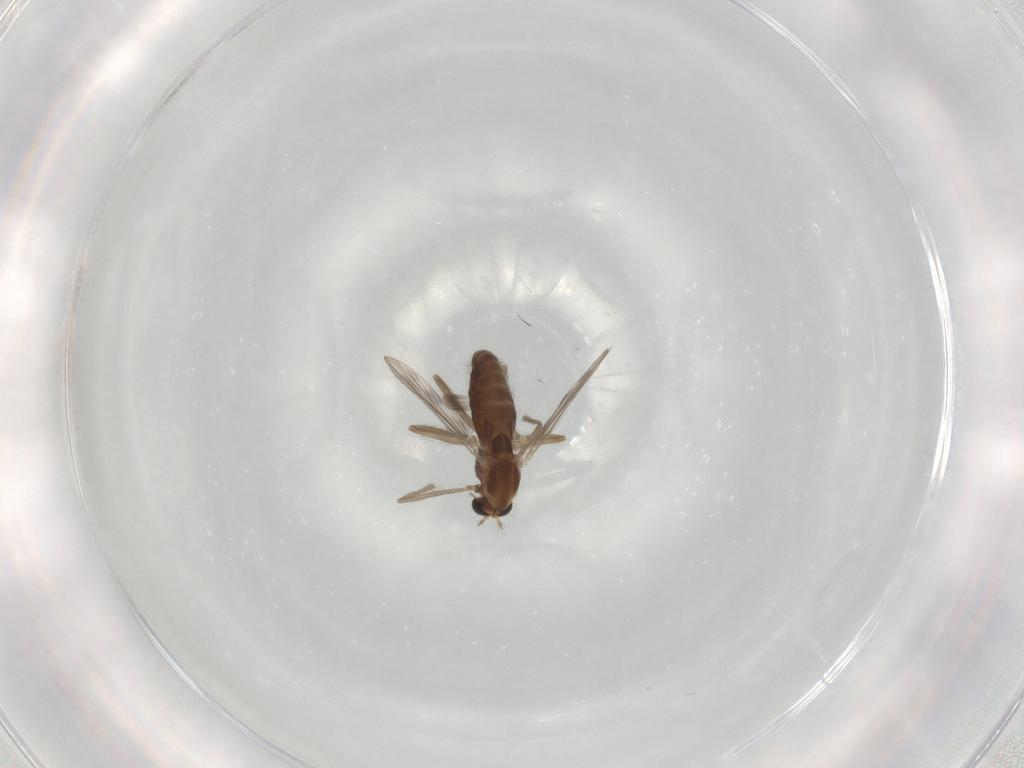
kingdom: Animalia
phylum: Arthropoda
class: Insecta
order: Diptera
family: Chironomidae
